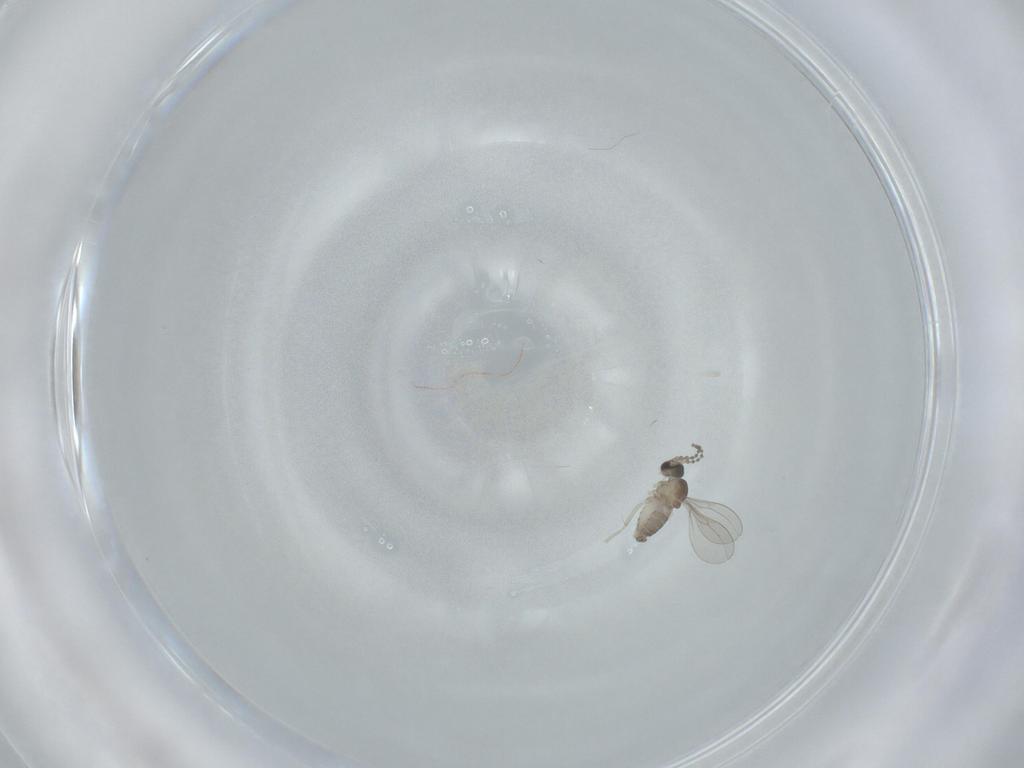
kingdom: Animalia
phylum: Arthropoda
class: Insecta
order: Diptera
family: Cecidomyiidae
